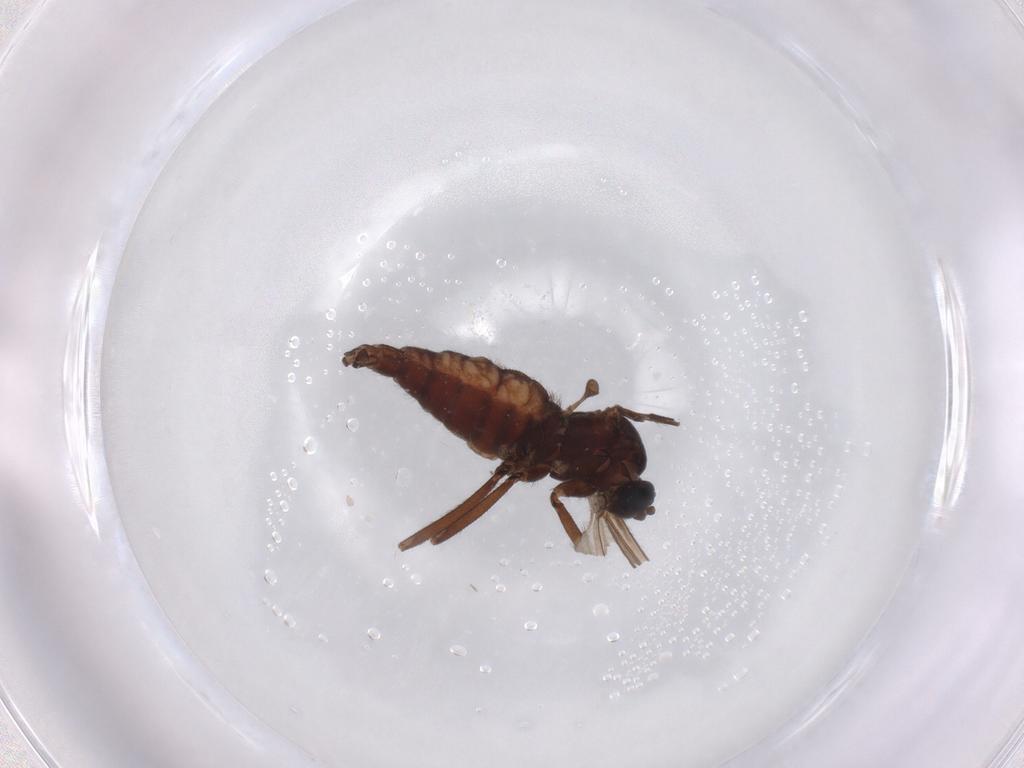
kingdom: Animalia
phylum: Arthropoda
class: Insecta
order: Diptera
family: Sciaridae
